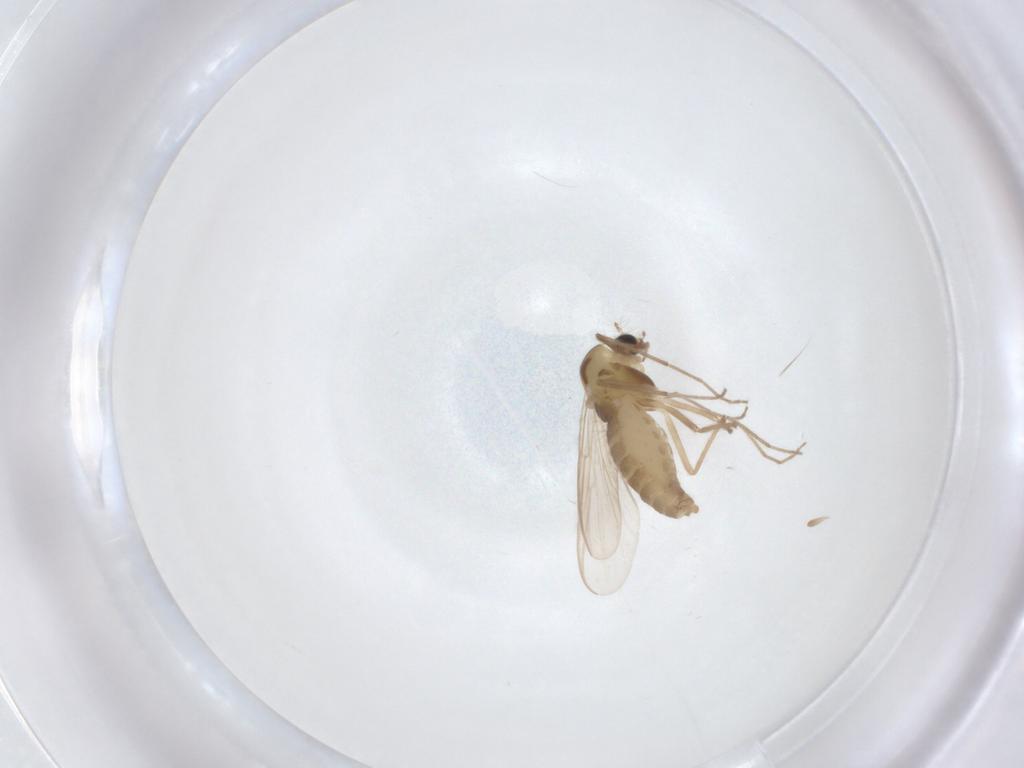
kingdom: Animalia
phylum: Arthropoda
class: Insecta
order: Diptera
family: Chironomidae
